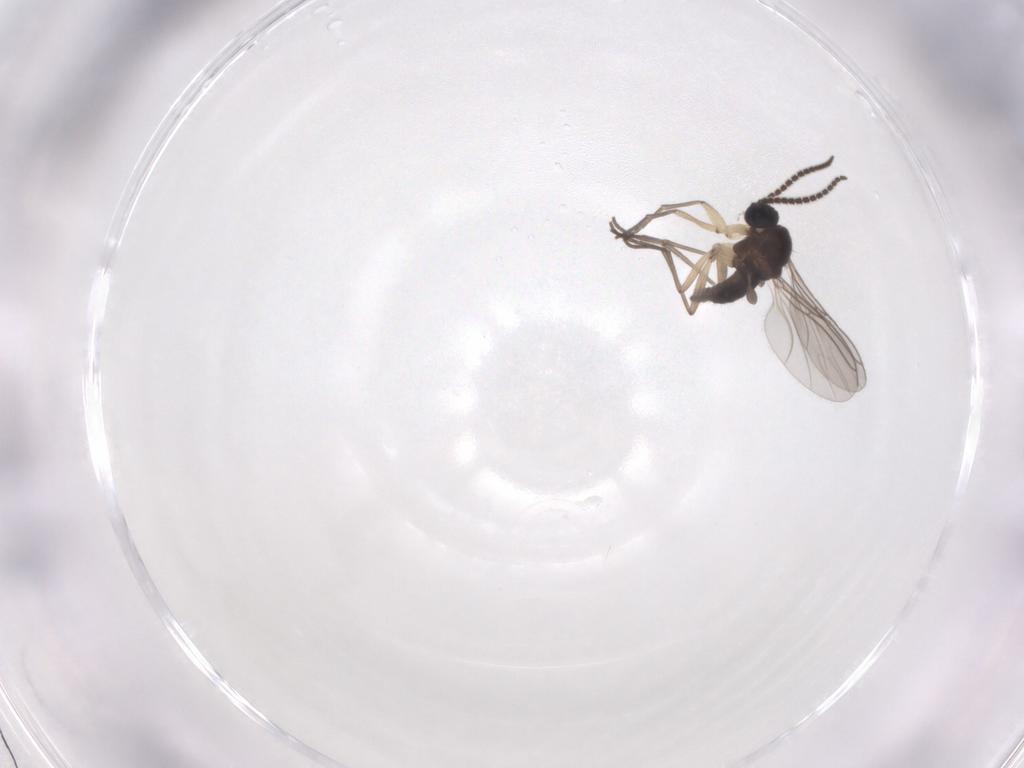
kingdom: Animalia
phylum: Arthropoda
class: Insecta
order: Diptera
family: Sciaridae
